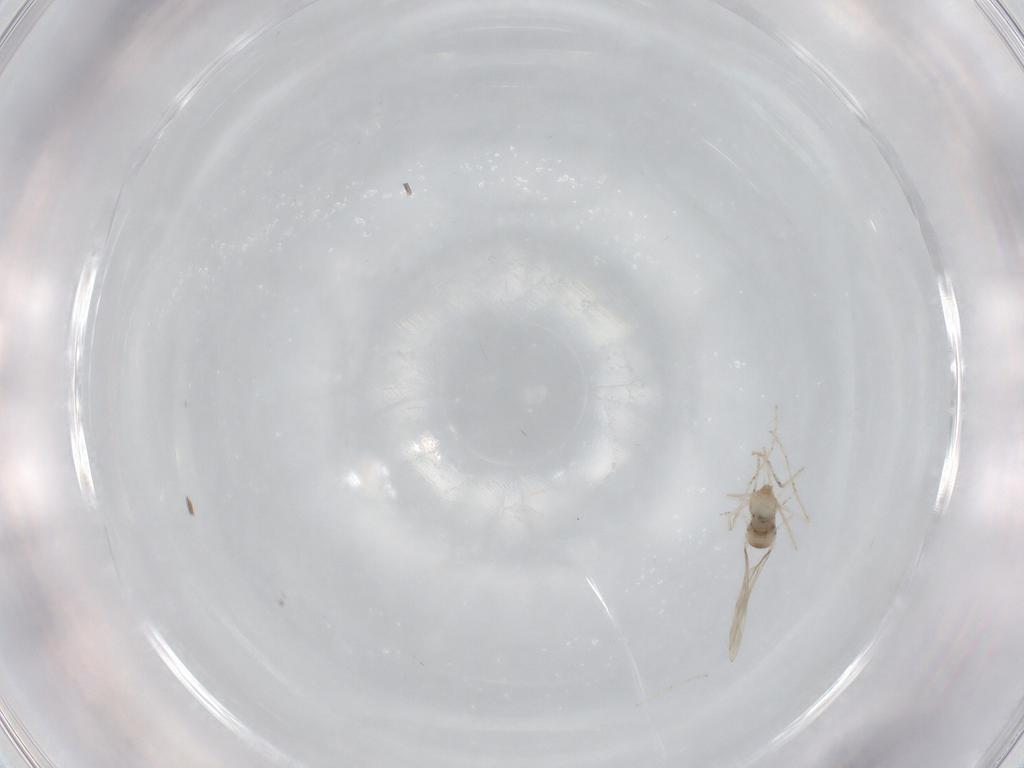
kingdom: Animalia
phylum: Arthropoda
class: Insecta
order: Diptera
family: Cecidomyiidae
